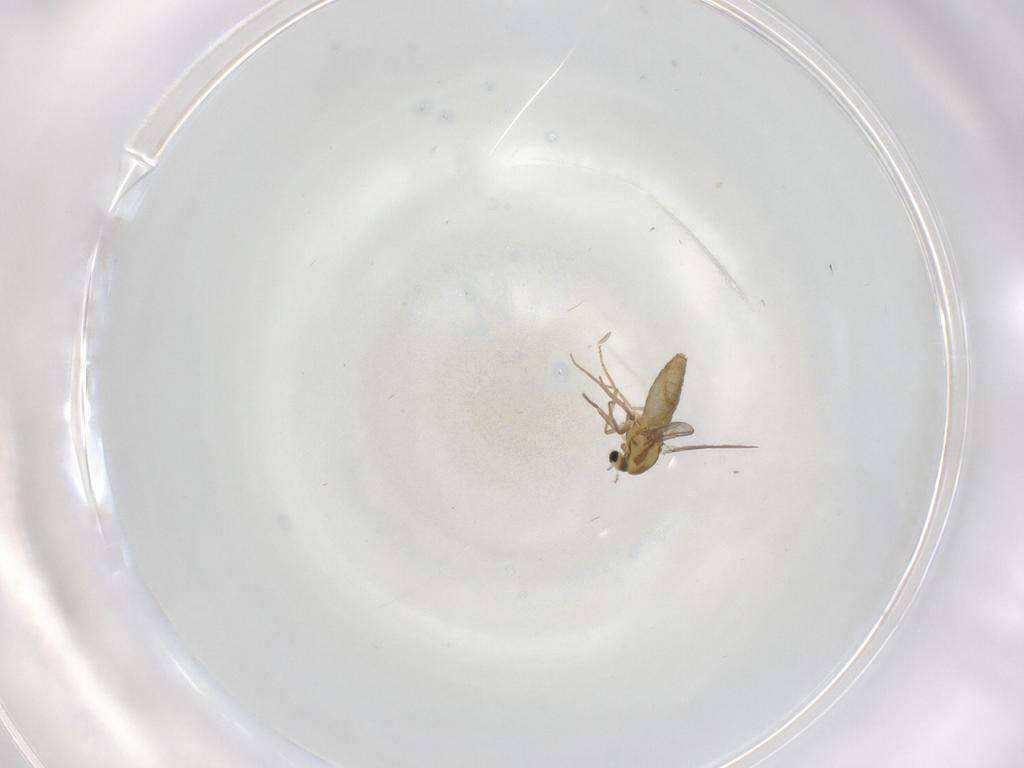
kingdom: Animalia
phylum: Arthropoda
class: Insecta
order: Diptera
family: Chironomidae
